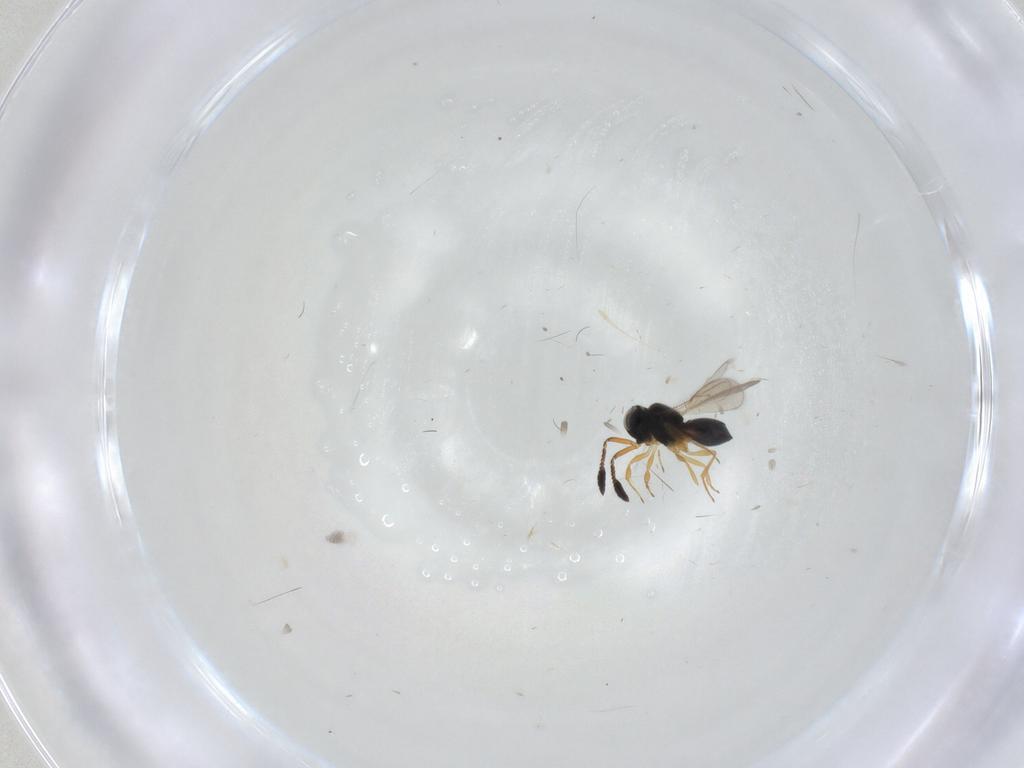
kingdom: Animalia
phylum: Arthropoda
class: Insecta
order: Hymenoptera
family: Scelionidae
